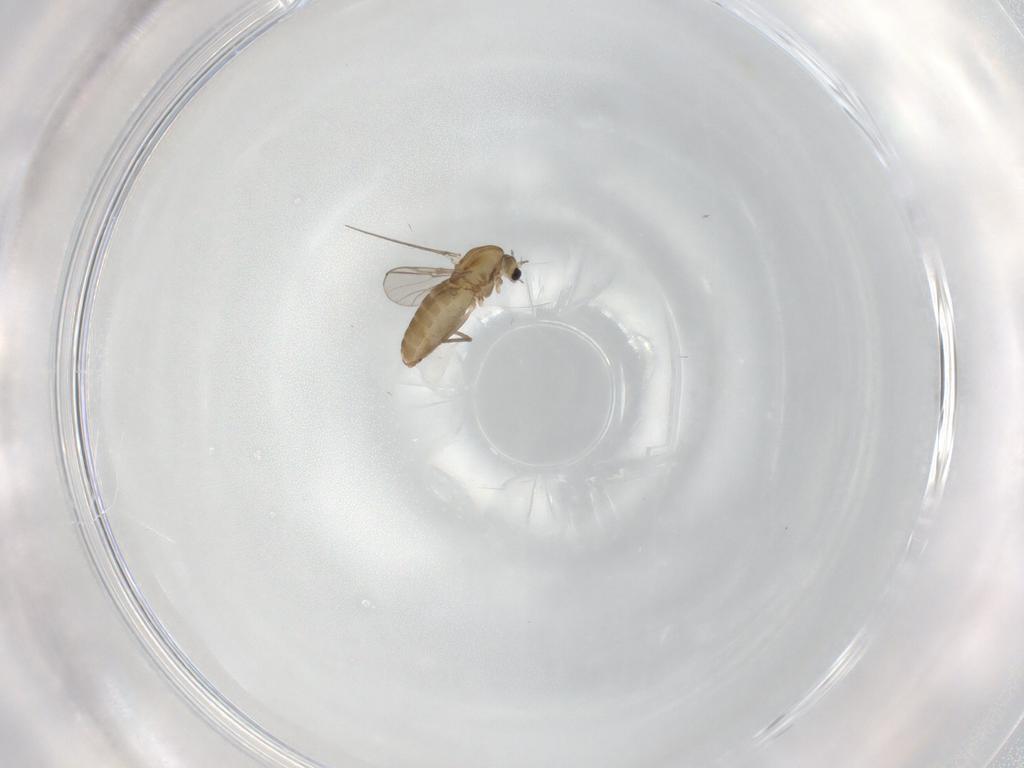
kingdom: Animalia
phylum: Arthropoda
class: Insecta
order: Diptera
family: Chironomidae
